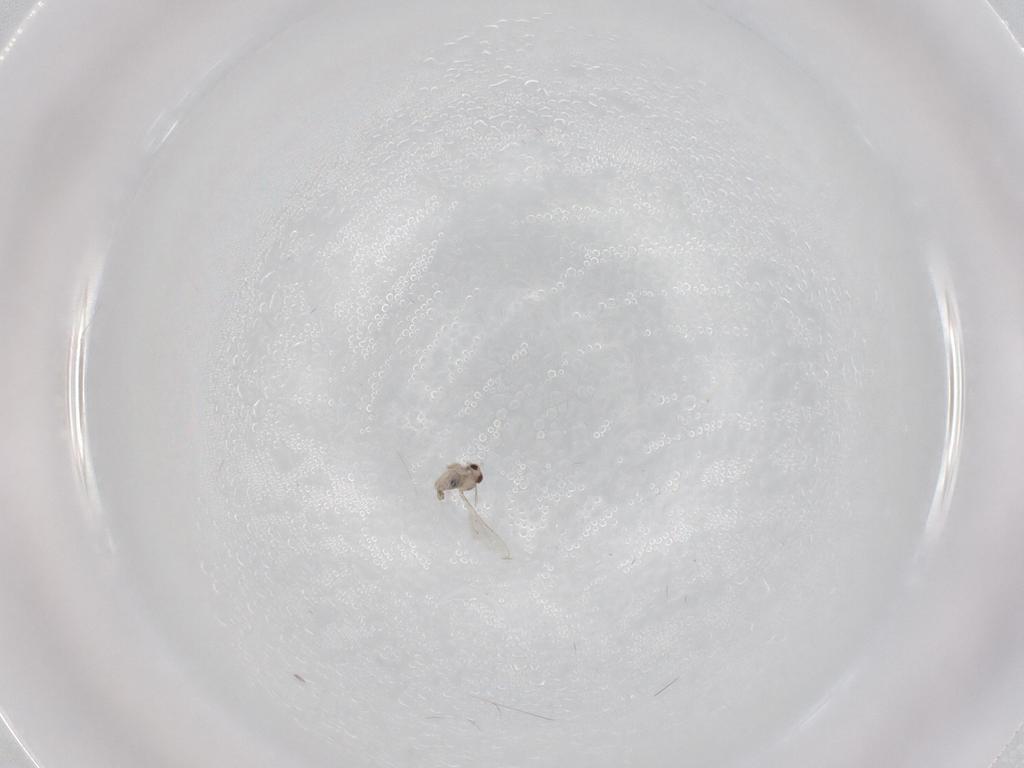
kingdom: Animalia
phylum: Arthropoda
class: Insecta
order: Diptera
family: Cecidomyiidae
